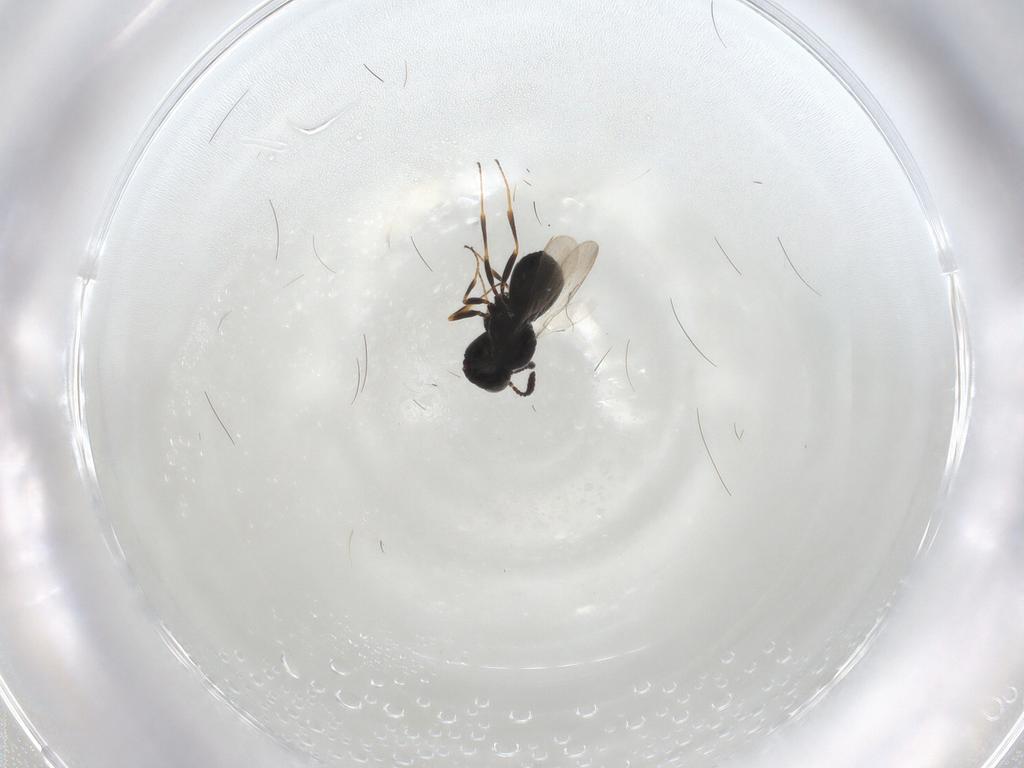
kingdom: Animalia
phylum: Arthropoda
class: Insecta
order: Hymenoptera
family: Scelionidae
